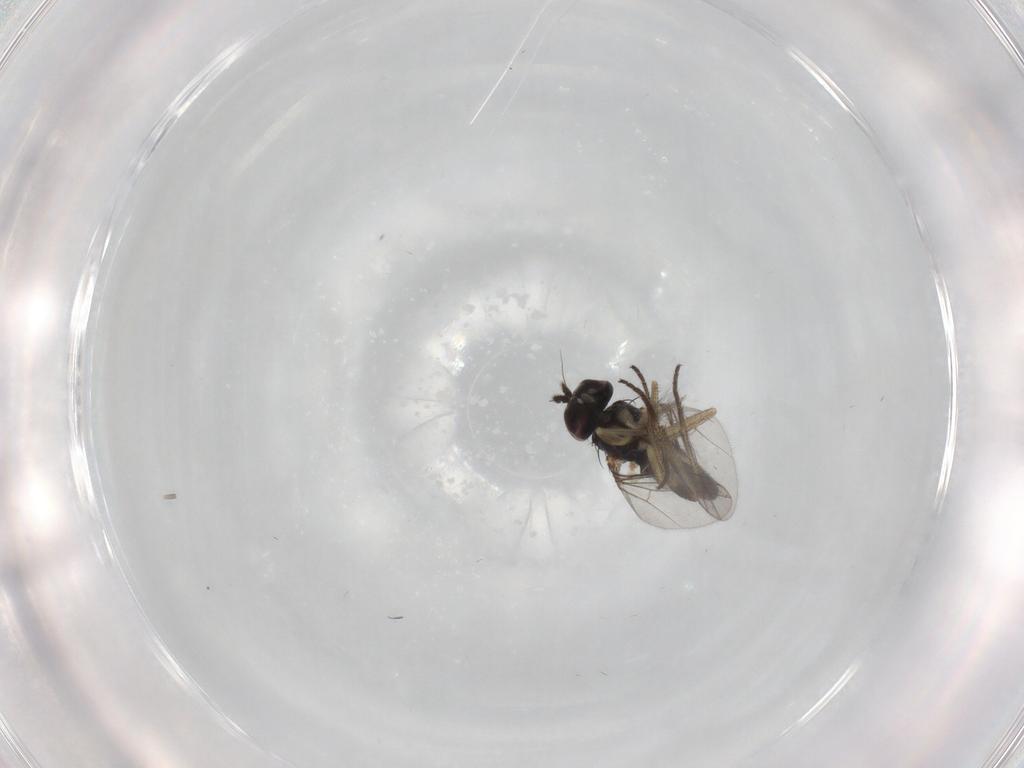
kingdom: Animalia
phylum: Arthropoda
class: Insecta
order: Diptera
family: Dolichopodidae
